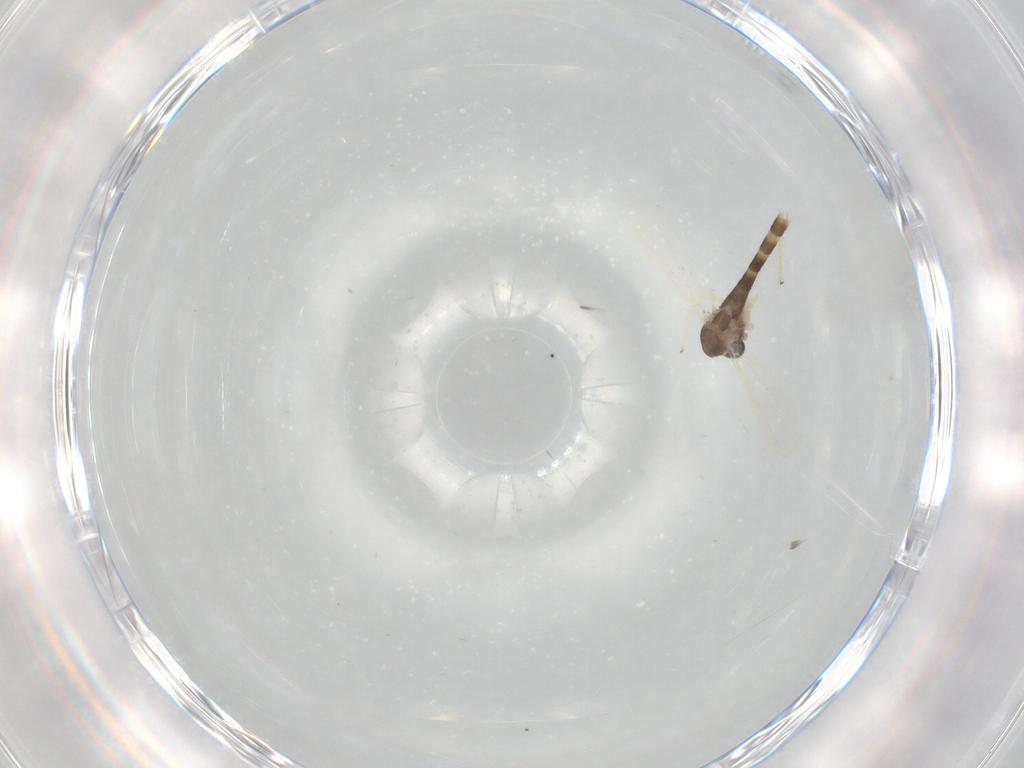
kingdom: Animalia
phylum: Arthropoda
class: Insecta
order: Diptera
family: Chironomidae
